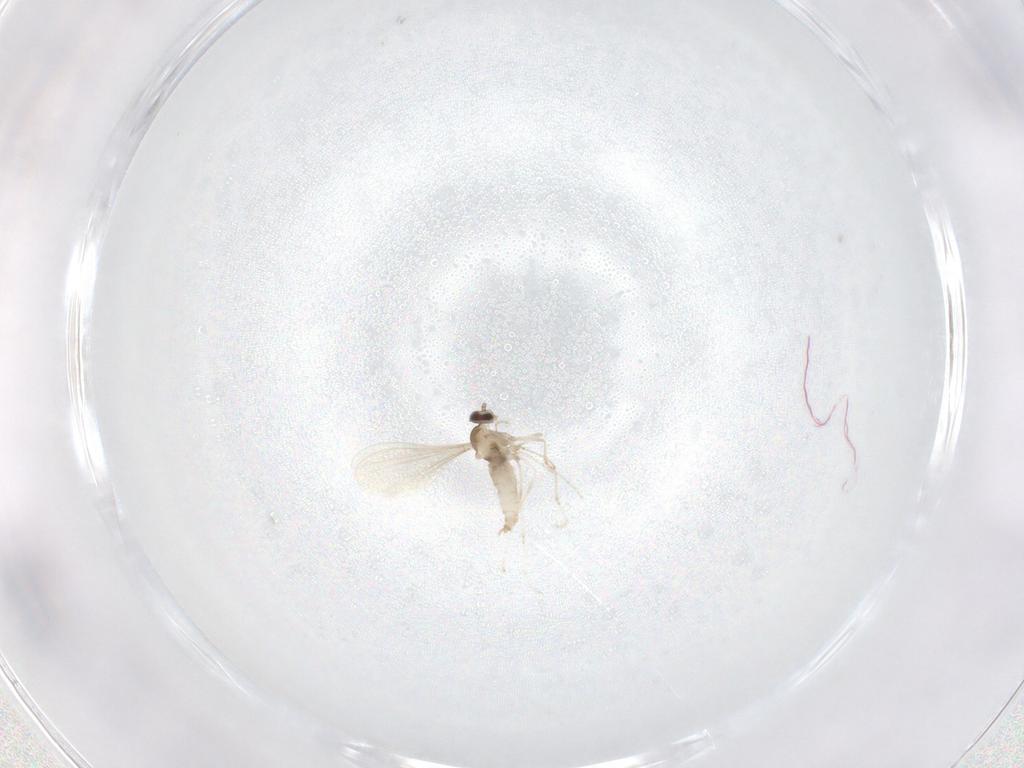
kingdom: Animalia
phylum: Arthropoda
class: Insecta
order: Diptera
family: Cecidomyiidae
